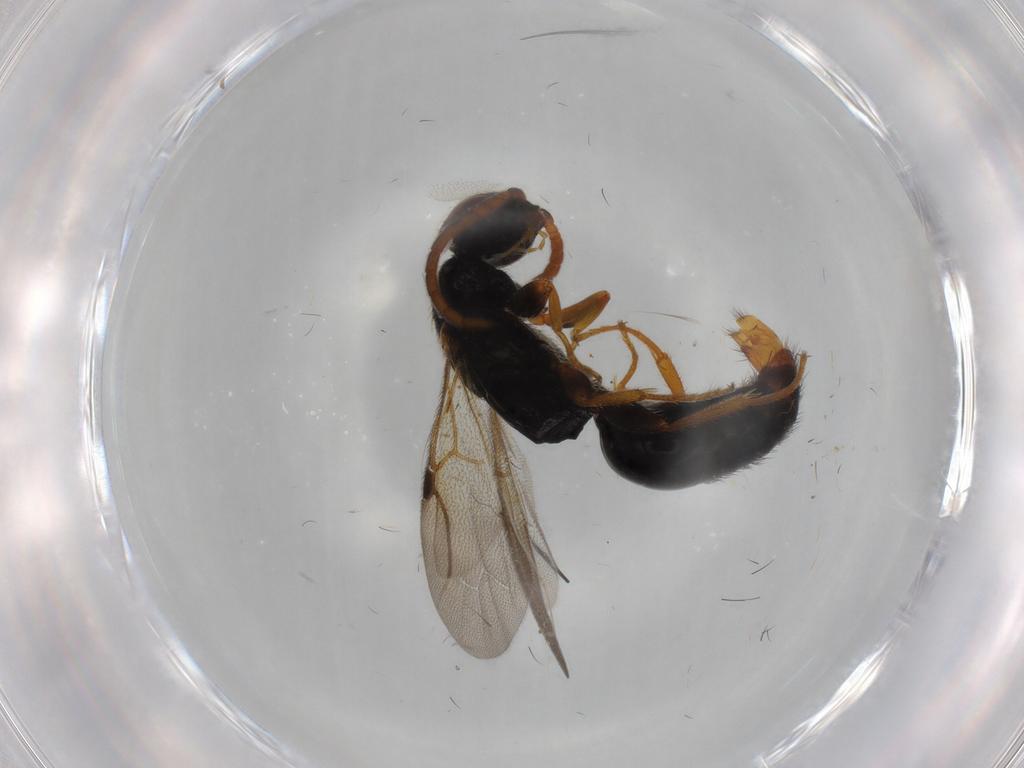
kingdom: Animalia
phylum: Arthropoda
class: Insecta
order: Hymenoptera
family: Bethylidae
